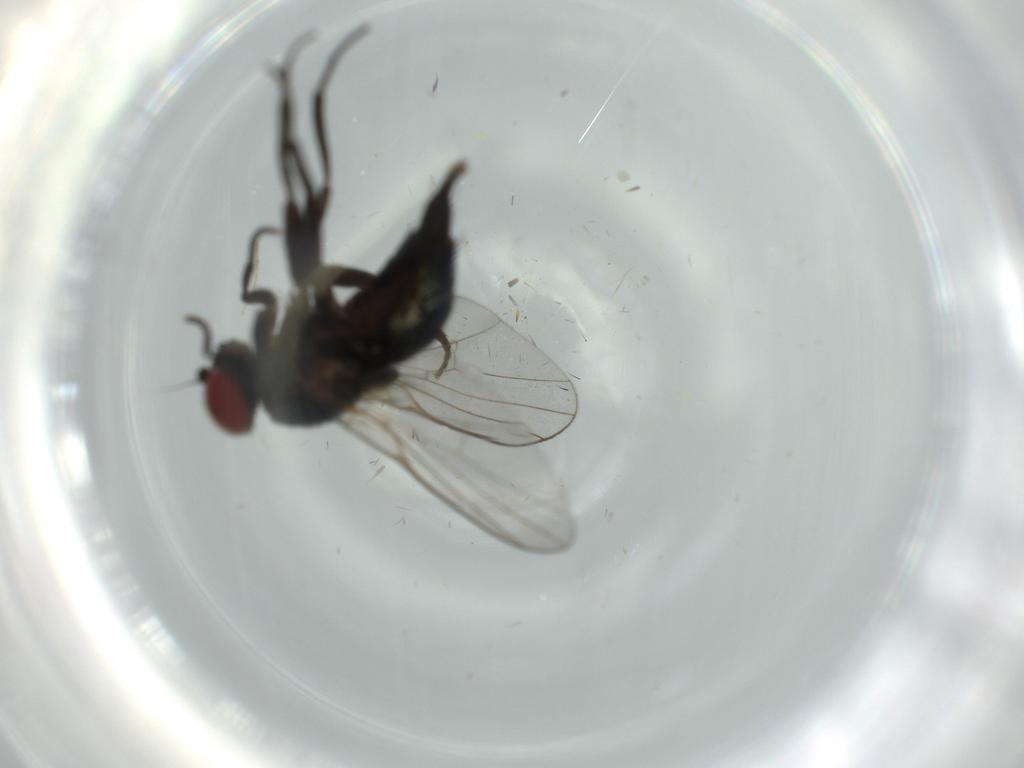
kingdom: Animalia
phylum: Arthropoda
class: Insecta
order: Diptera
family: Agromyzidae
